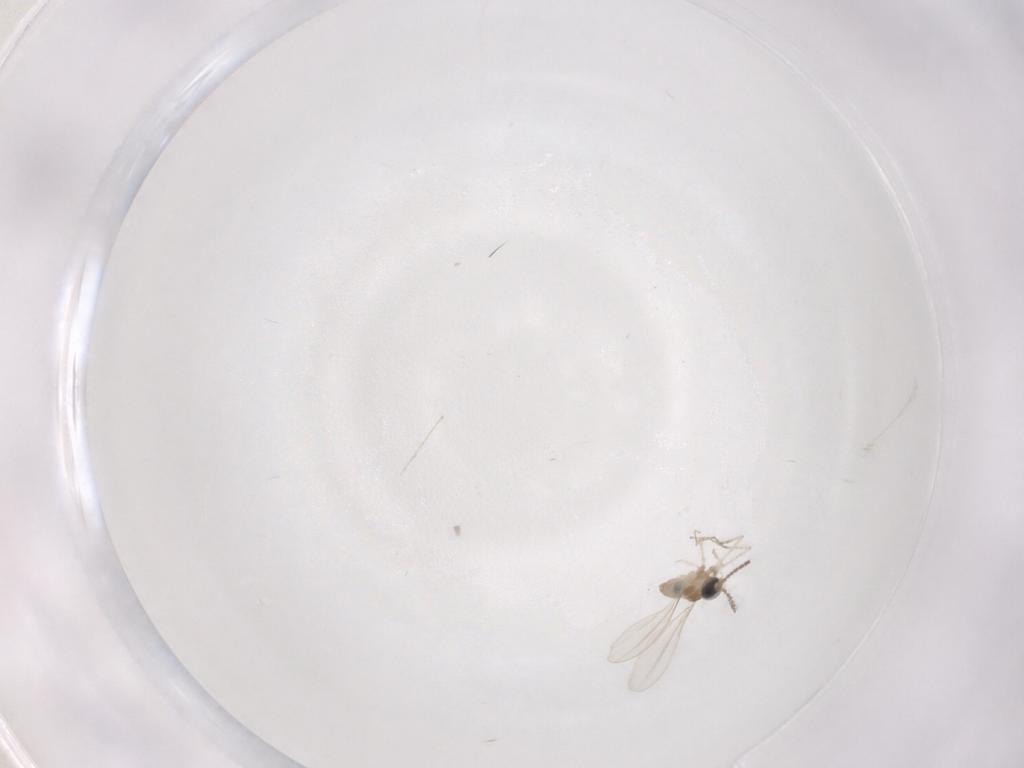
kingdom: Animalia
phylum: Arthropoda
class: Insecta
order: Diptera
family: Cecidomyiidae
